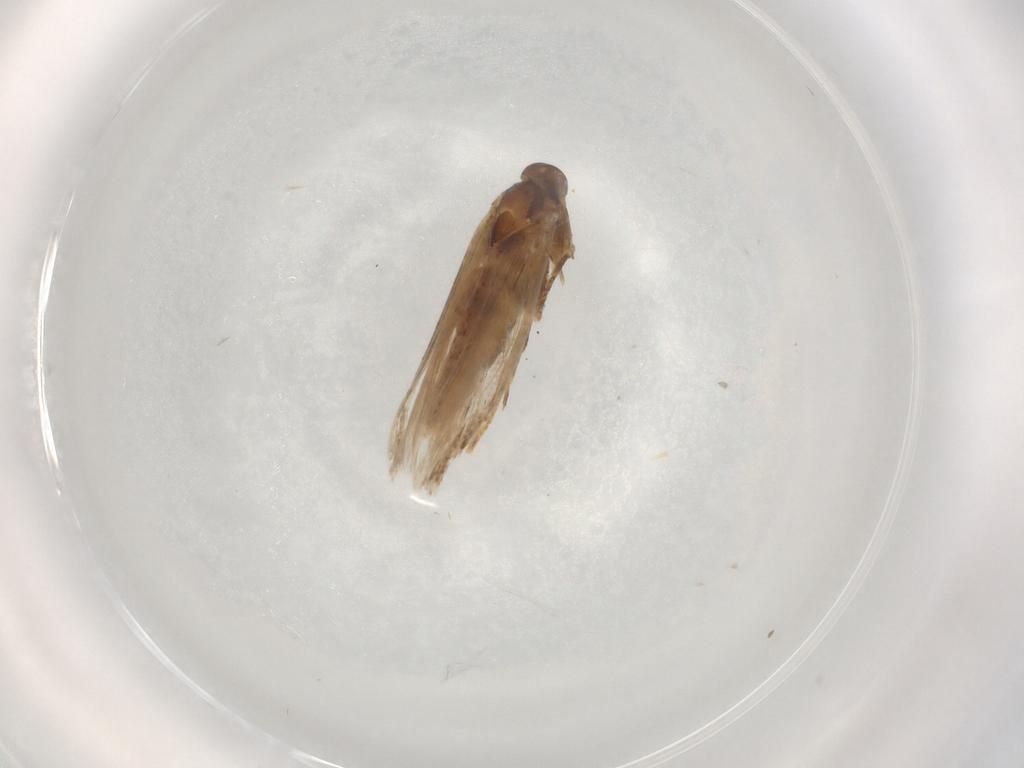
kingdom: Animalia
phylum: Arthropoda
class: Insecta
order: Lepidoptera
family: Gelechiidae
